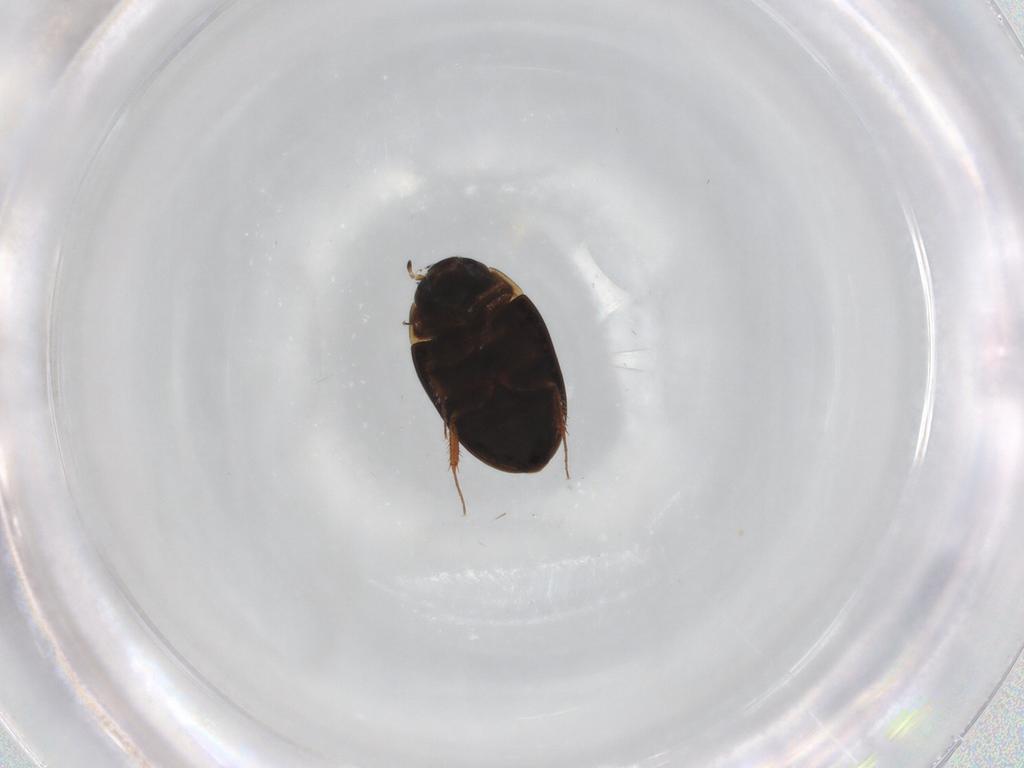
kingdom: Animalia
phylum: Arthropoda
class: Insecta
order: Coleoptera
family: Hydrophilidae
